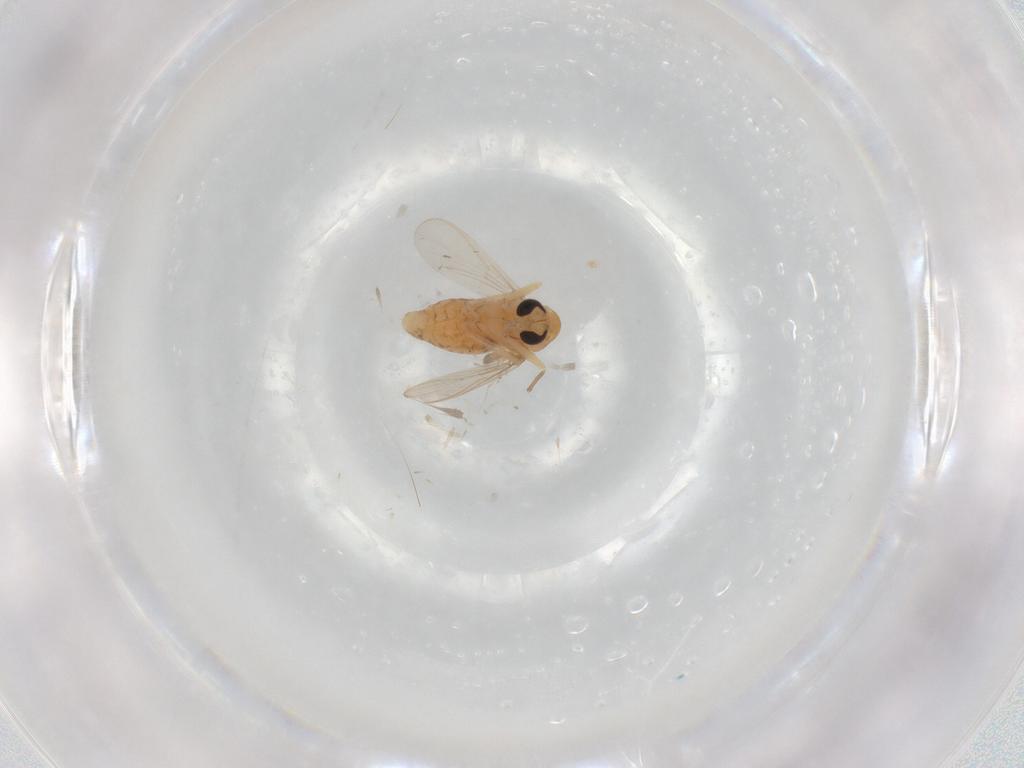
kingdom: Animalia
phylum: Arthropoda
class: Insecta
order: Diptera
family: Chironomidae
